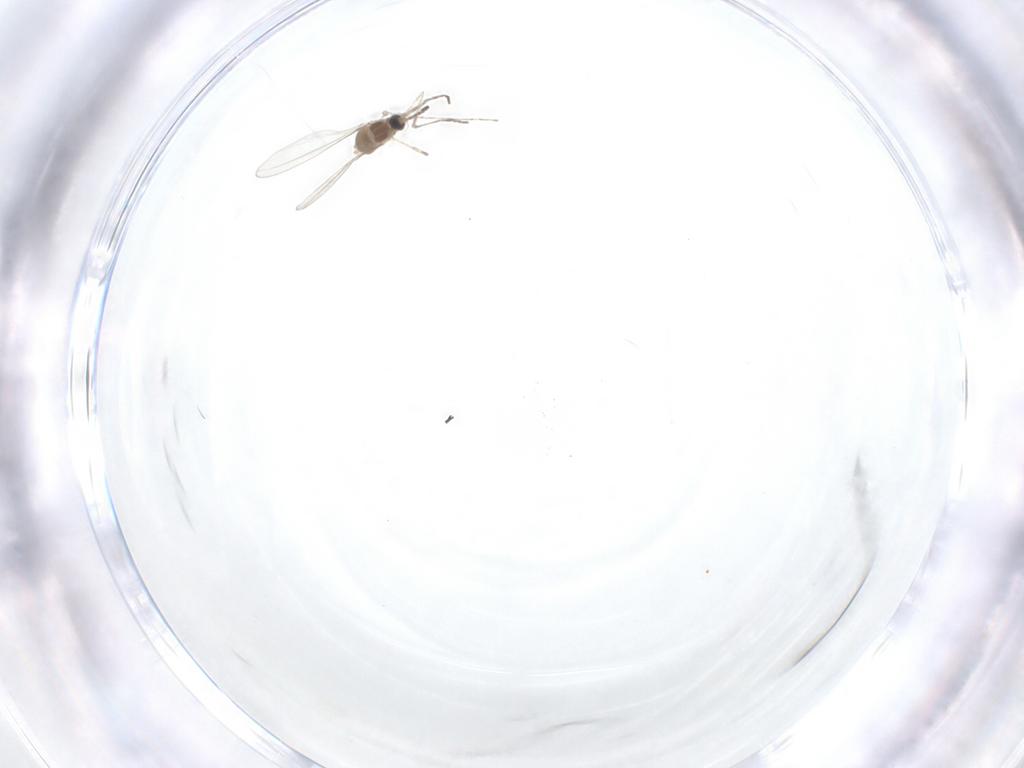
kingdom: Animalia
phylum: Arthropoda
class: Insecta
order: Diptera
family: Cecidomyiidae
